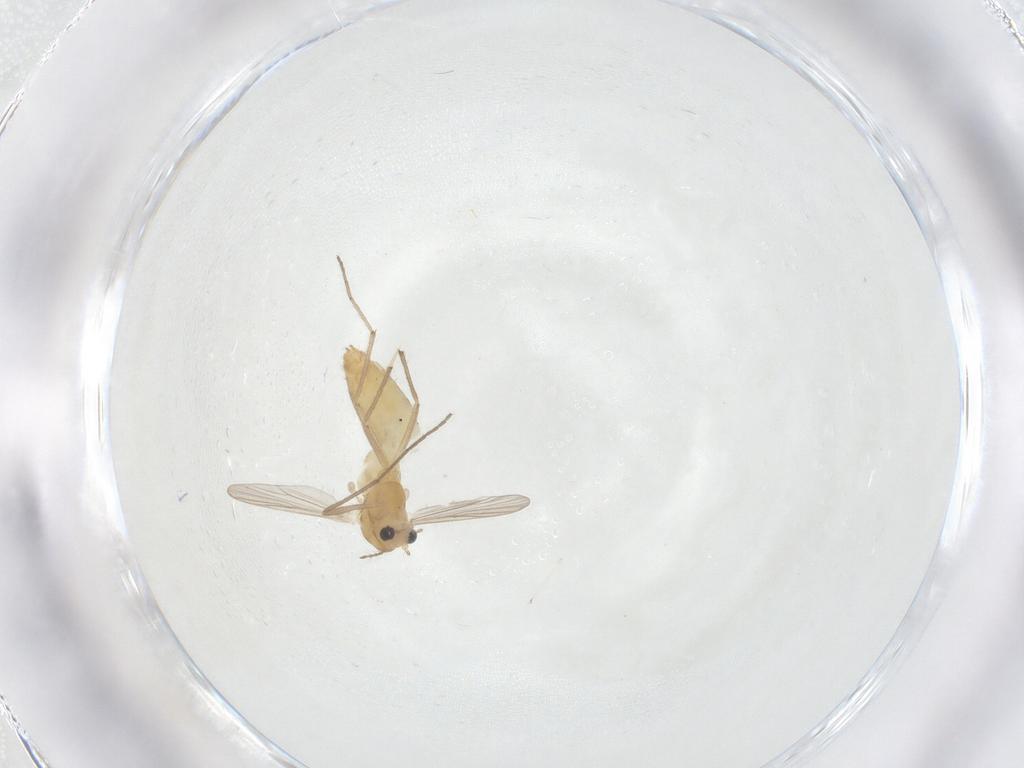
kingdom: Animalia
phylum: Arthropoda
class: Insecta
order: Diptera
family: Chironomidae
